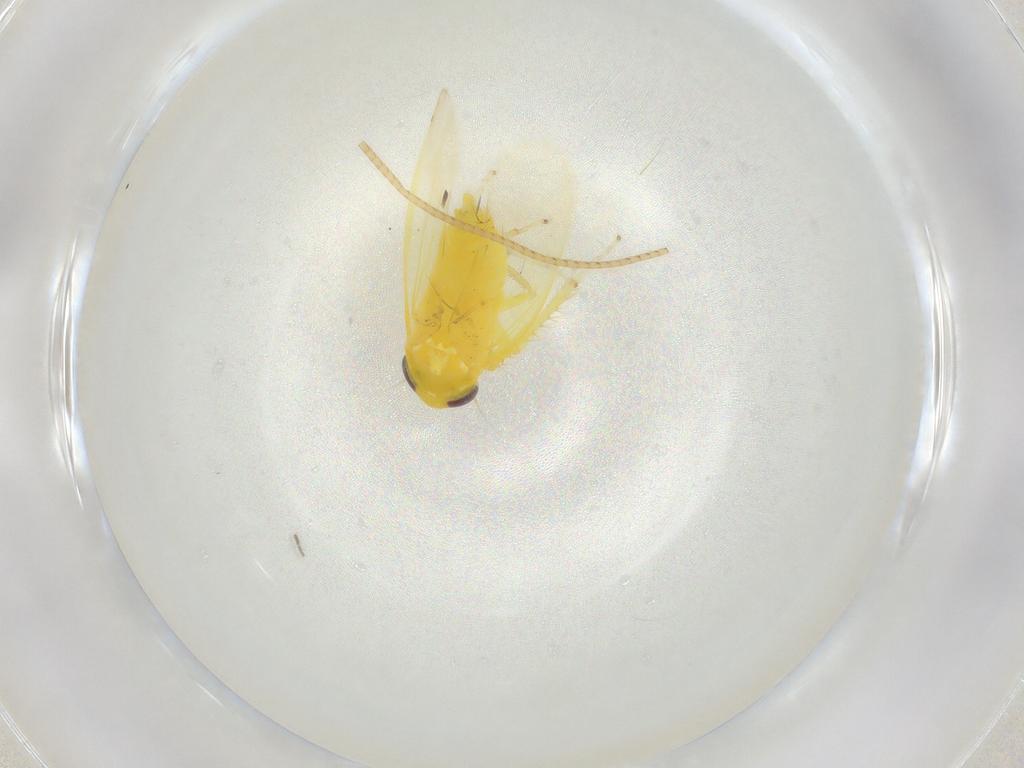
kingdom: Animalia
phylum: Arthropoda
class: Insecta
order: Hemiptera
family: Cicadellidae
